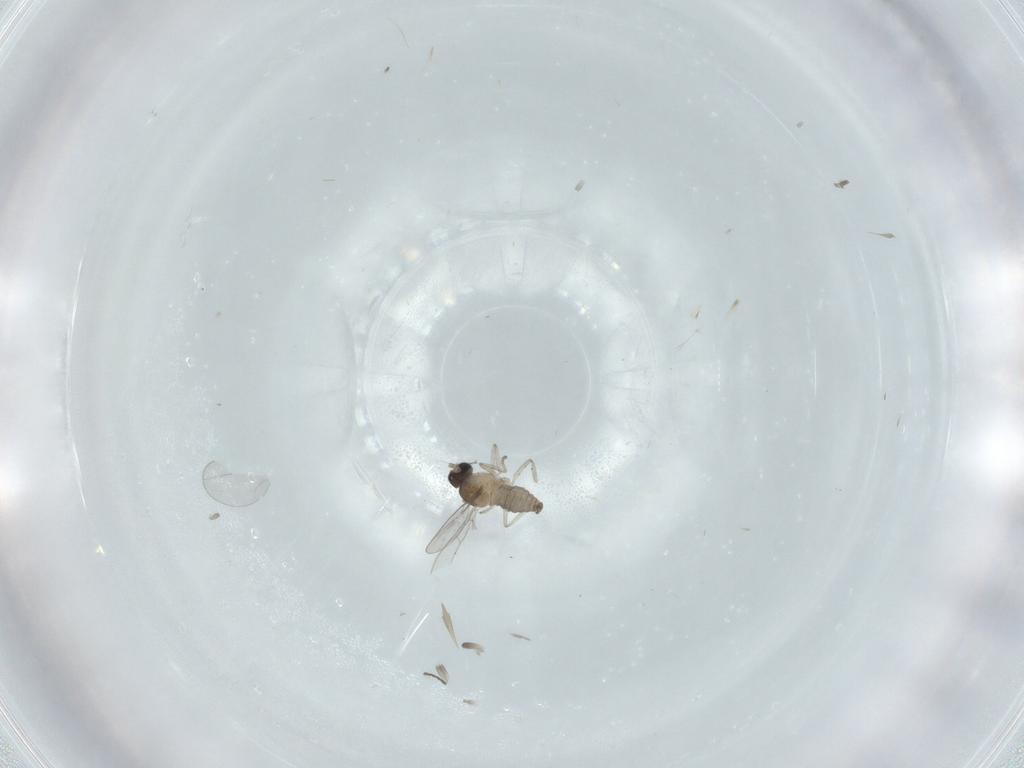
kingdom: Animalia
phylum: Arthropoda
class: Insecta
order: Diptera
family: Cecidomyiidae
